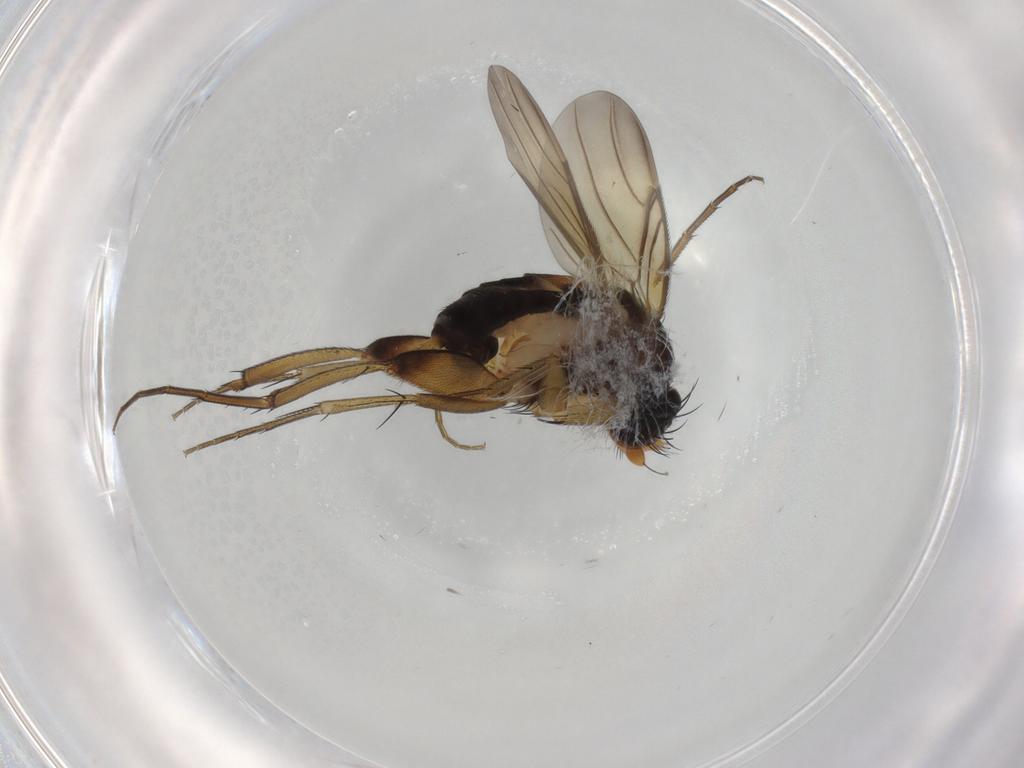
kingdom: Animalia
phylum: Arthropoda
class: Insecta
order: Diptera
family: Phoridae
